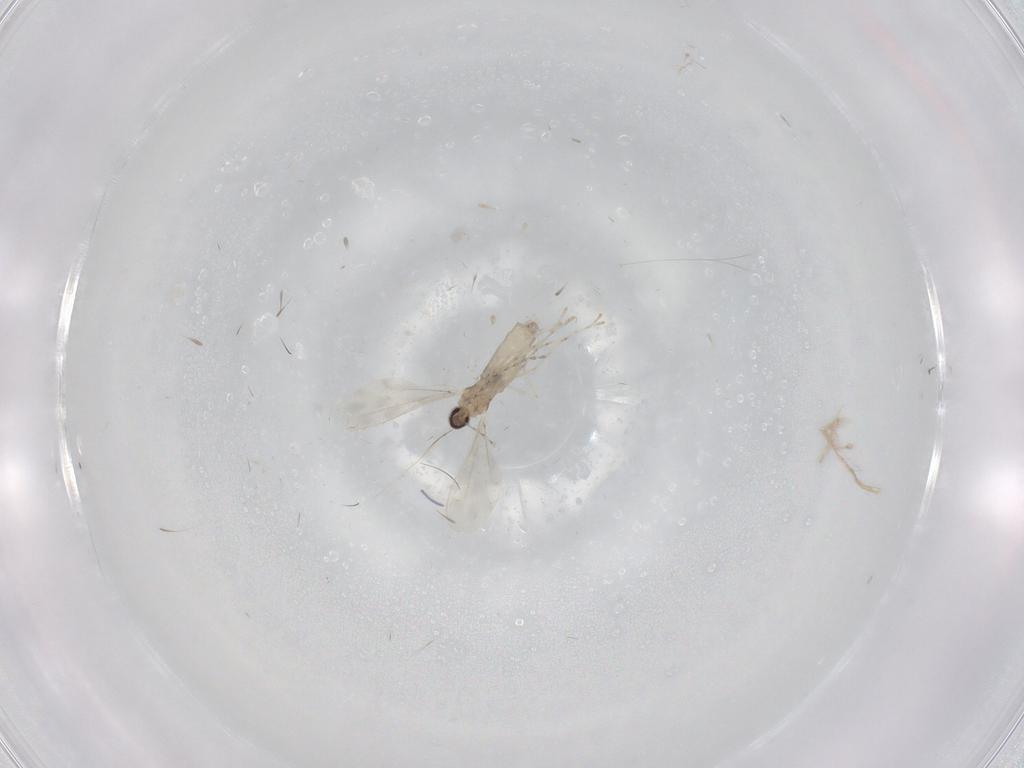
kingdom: Animalia
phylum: Arthropoda
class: Insecta
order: Diptera
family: Cecidomyiidae
